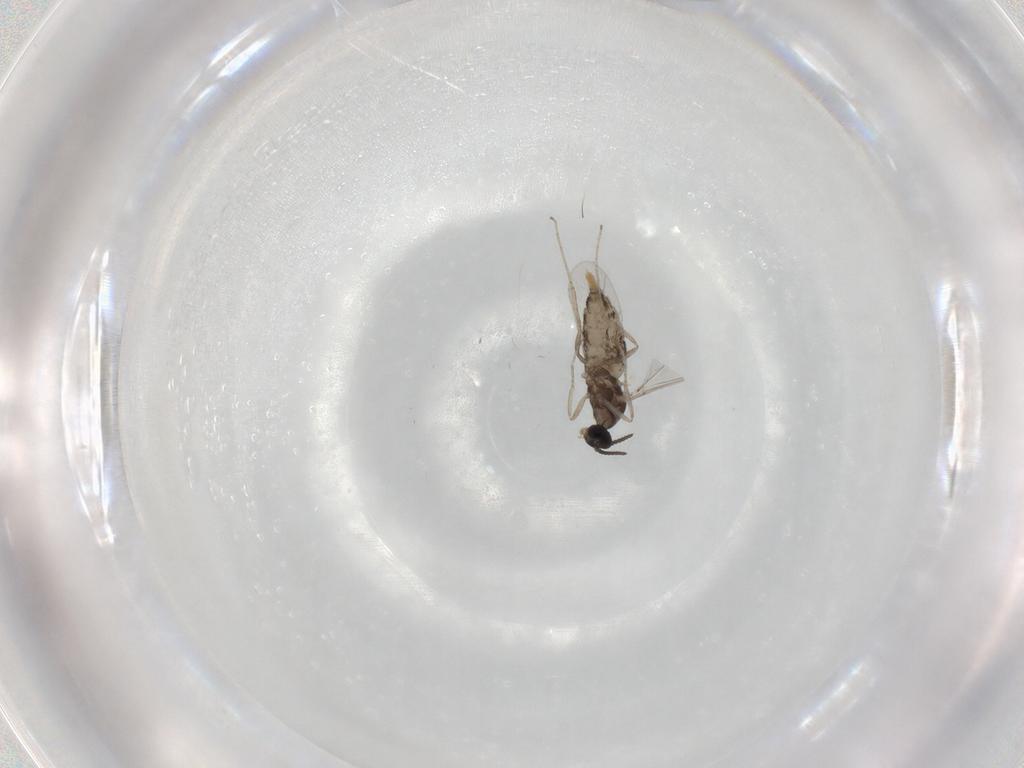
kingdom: Animalia
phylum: Arthropoda
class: Insecta
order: Diptera
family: Cecidomyiidae
